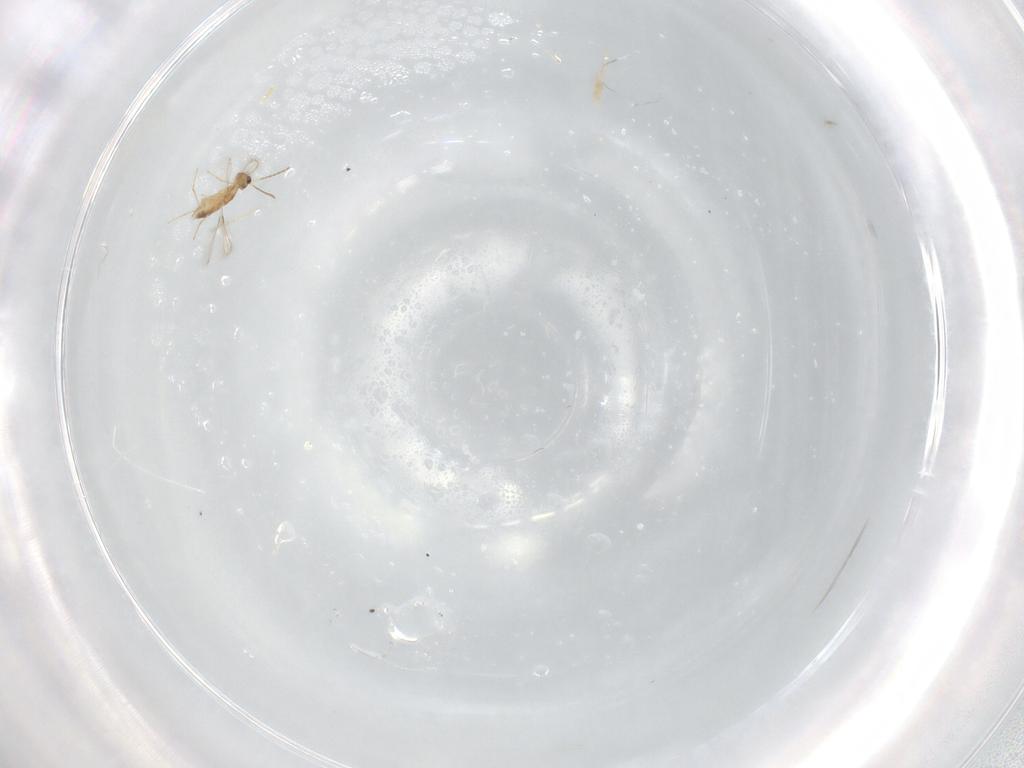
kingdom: Animalia
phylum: Arthropoda
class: Insecta
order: Hymenoptera
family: Mymaridae
